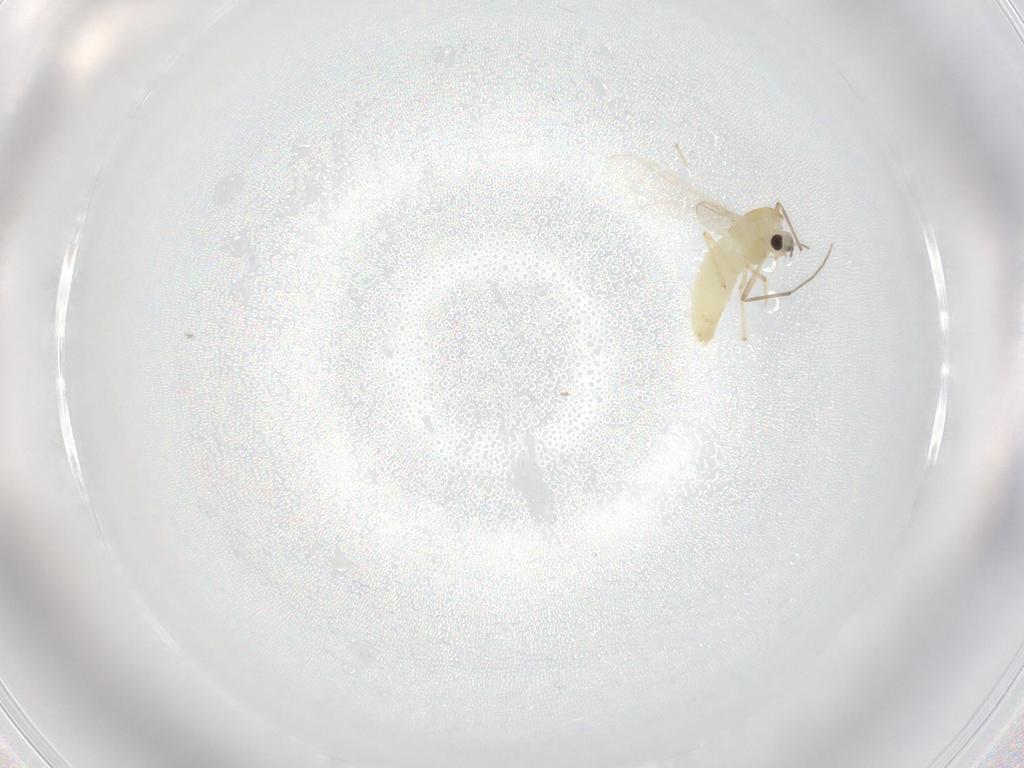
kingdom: Animalia
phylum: Arthropoda
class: Insecta
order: Diptera
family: Chironomidae
